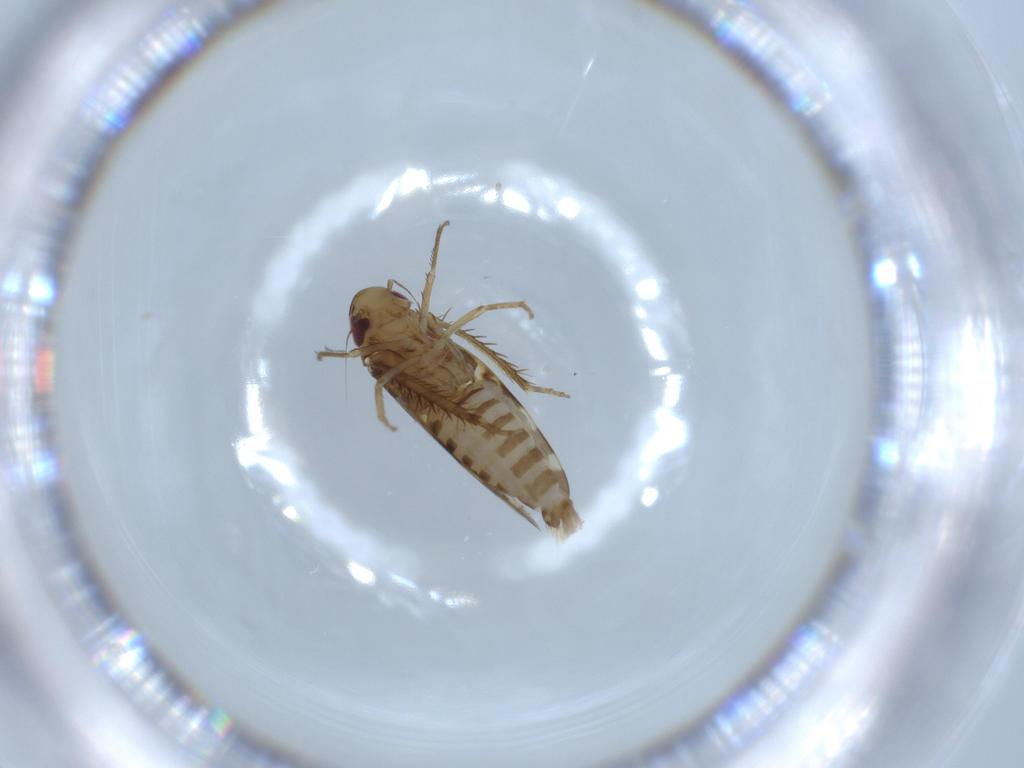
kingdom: Animalia
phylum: Arthropoda
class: Insecta
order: Hemiptera
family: Cicadellidae
